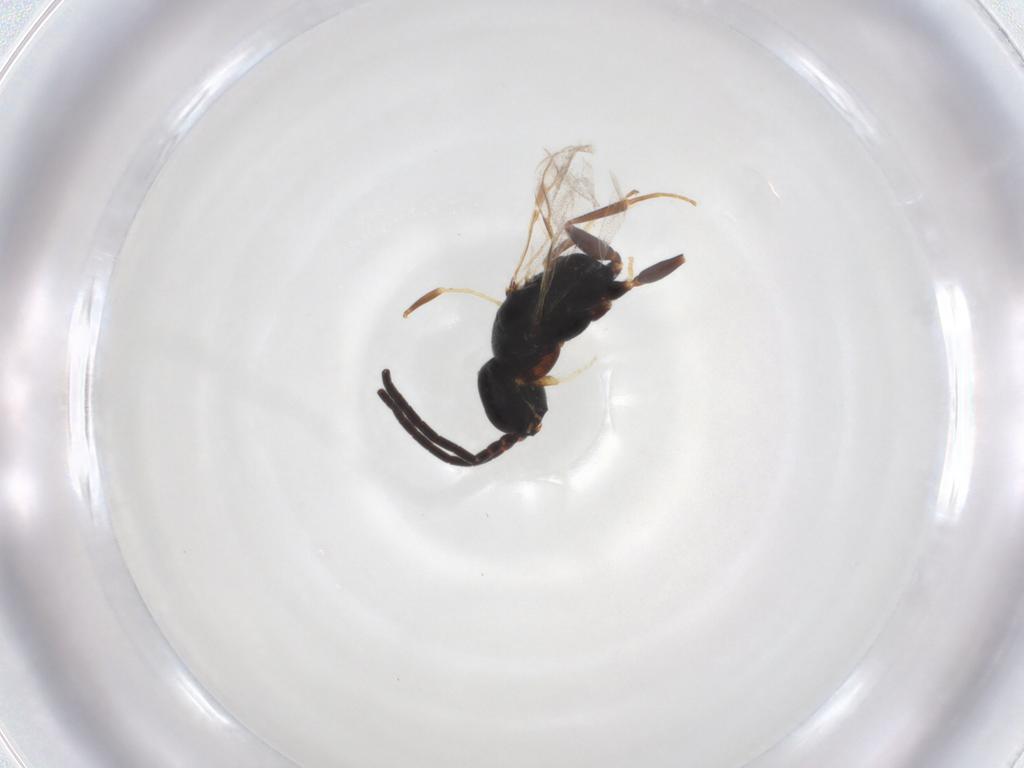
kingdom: Animalia
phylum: Arthropoda
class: Insecta
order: Hymenoptera
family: Bethylidae
